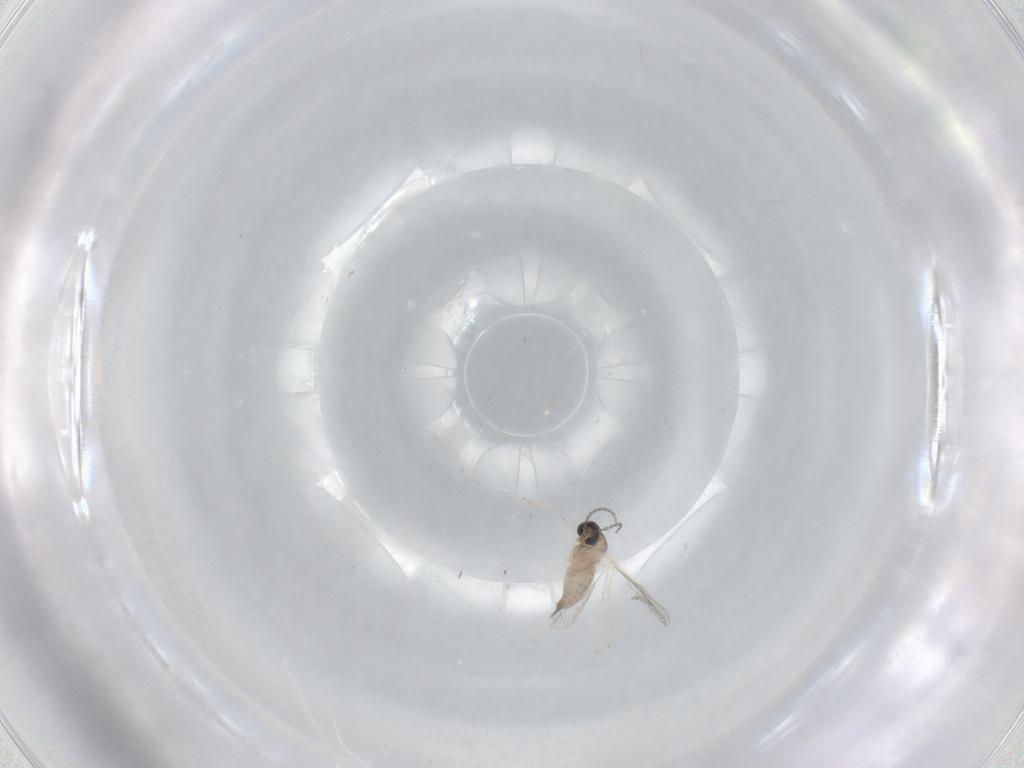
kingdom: Animalia
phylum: Arthropoda
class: Insecta
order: Diptera
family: Cecidomyiidae
